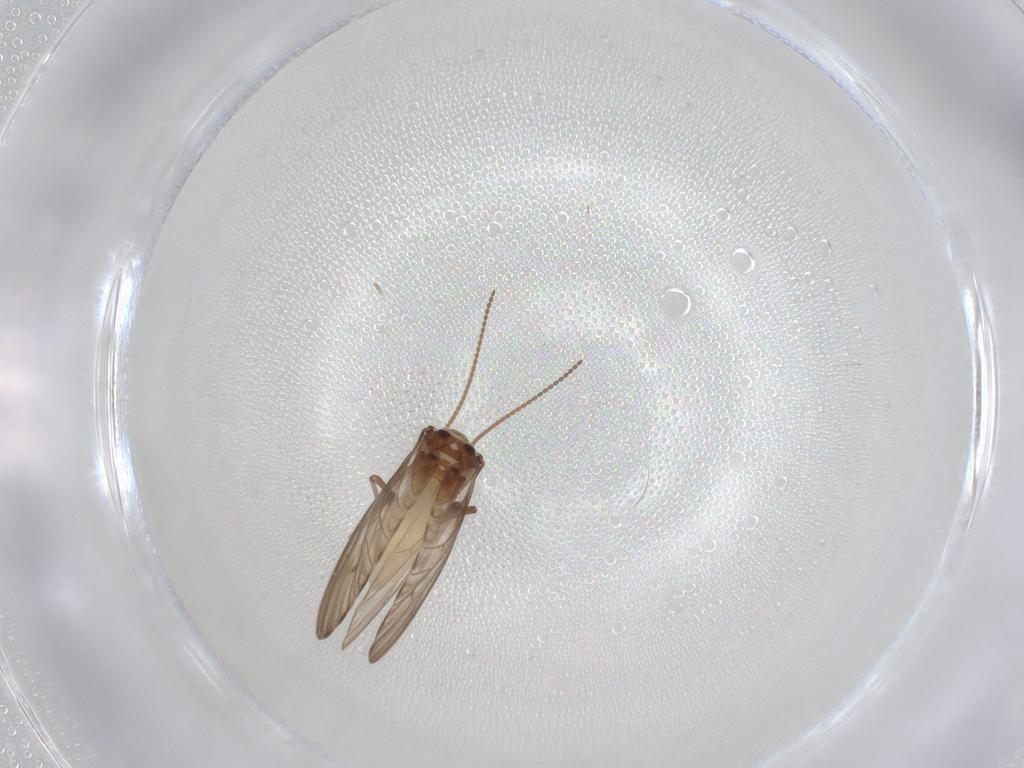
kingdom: Animalia
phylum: Arthropoda
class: Insecta
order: Neuroptera
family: Coniopterygidae
